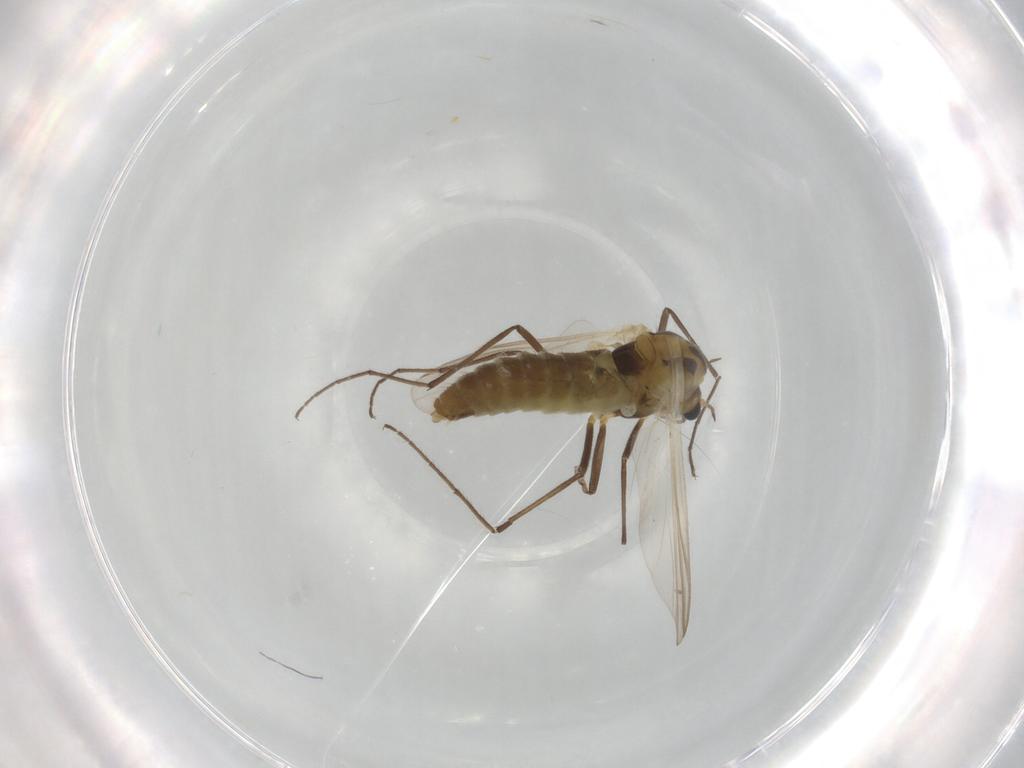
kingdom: Animalia
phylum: Arthropoda
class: Insecta
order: Diptera
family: Chironomidae
